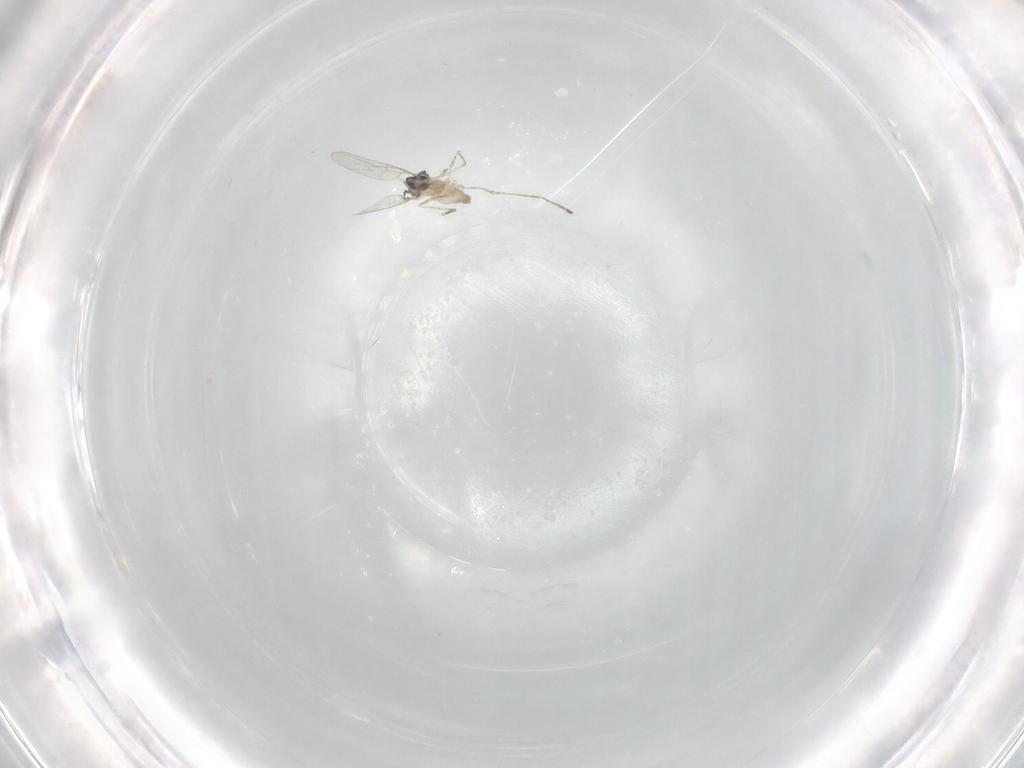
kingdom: Animalia
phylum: Arthropoda
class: Insecta
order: Diptera
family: Cecidomyiidae
